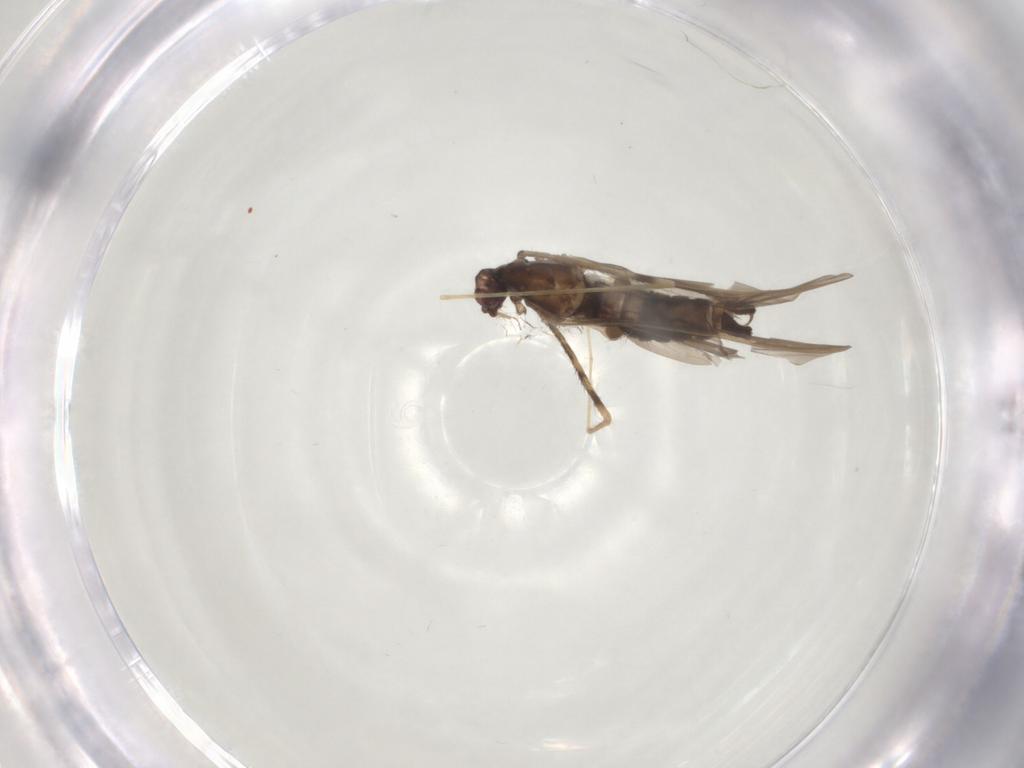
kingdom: Animalia
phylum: Arthropoda
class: Insecta
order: Diptera
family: Limoniidae
